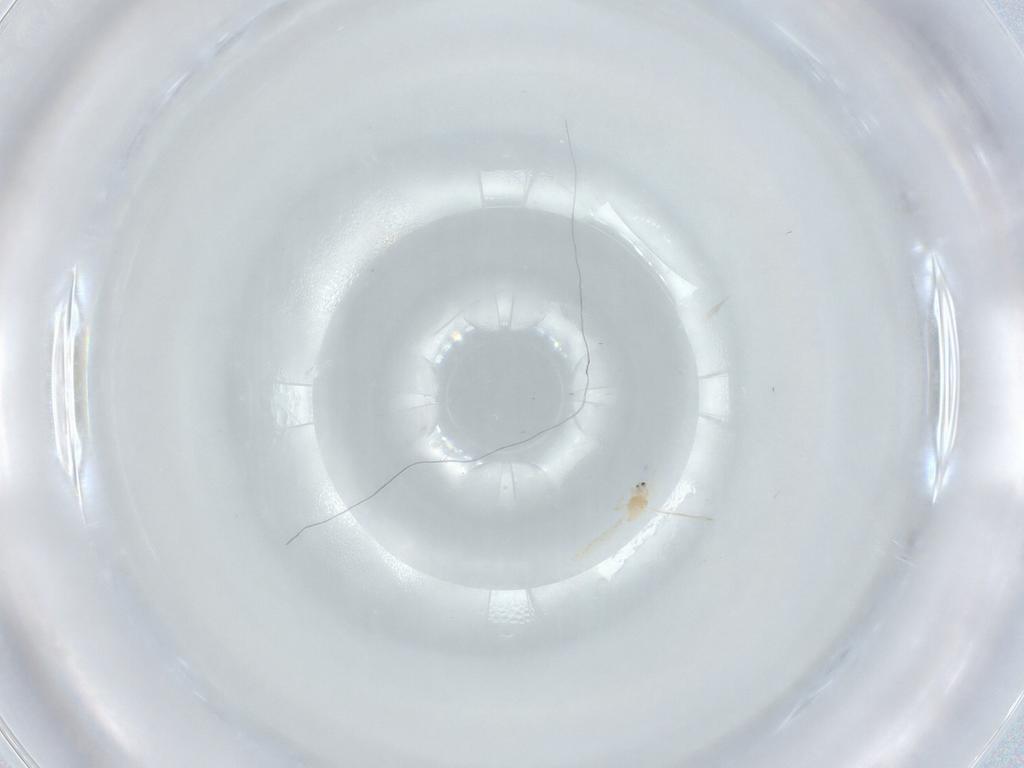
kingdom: Animalia
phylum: Arthropoda
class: Insecta
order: Hemiptera
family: Diaspididae
